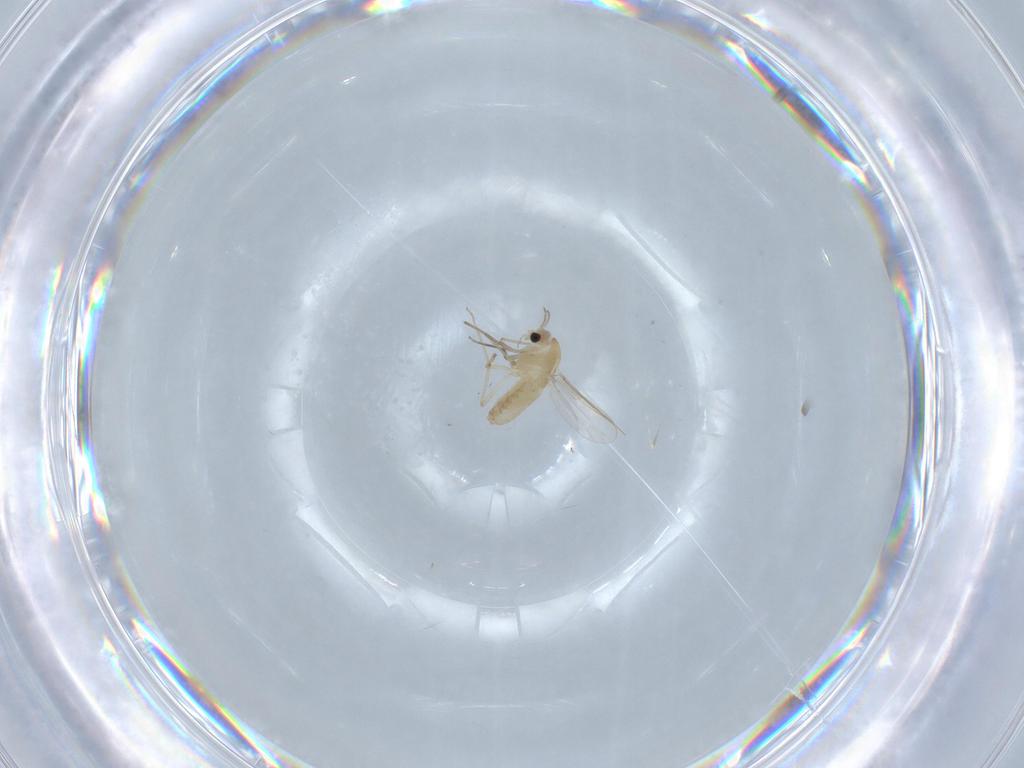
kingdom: Animalia
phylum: Arthropoda
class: Insecta
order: Diptera
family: Chironomidae
